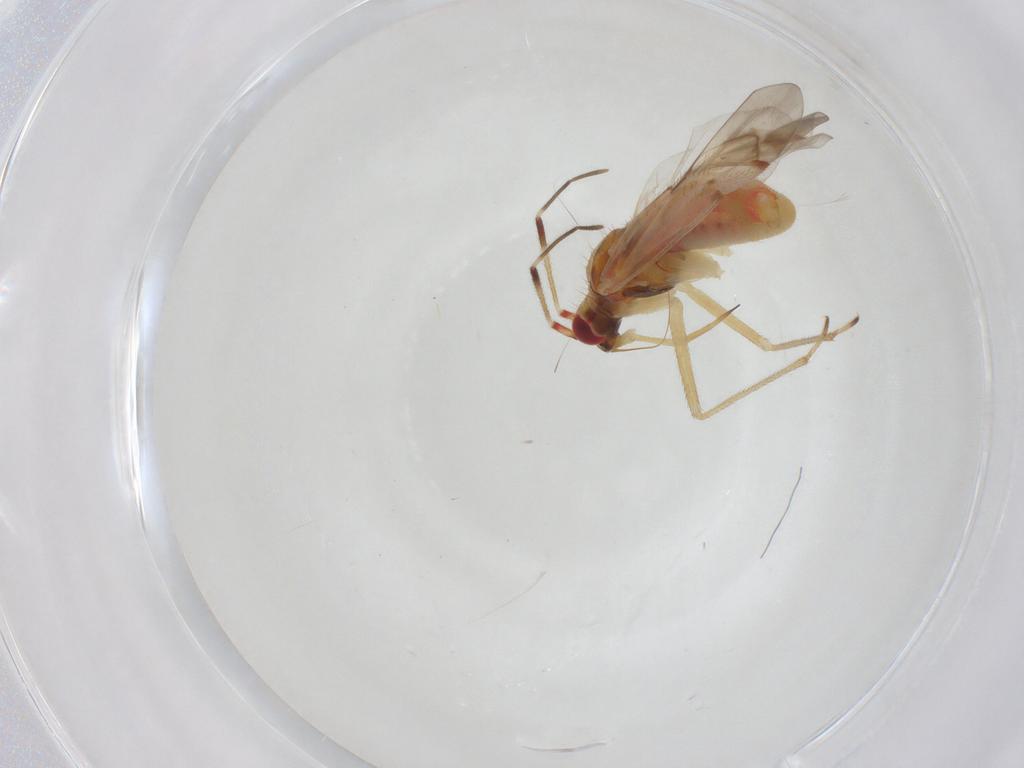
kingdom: Animalia
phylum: Arthropoda
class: Insecta
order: Hemiptera
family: Miridae
